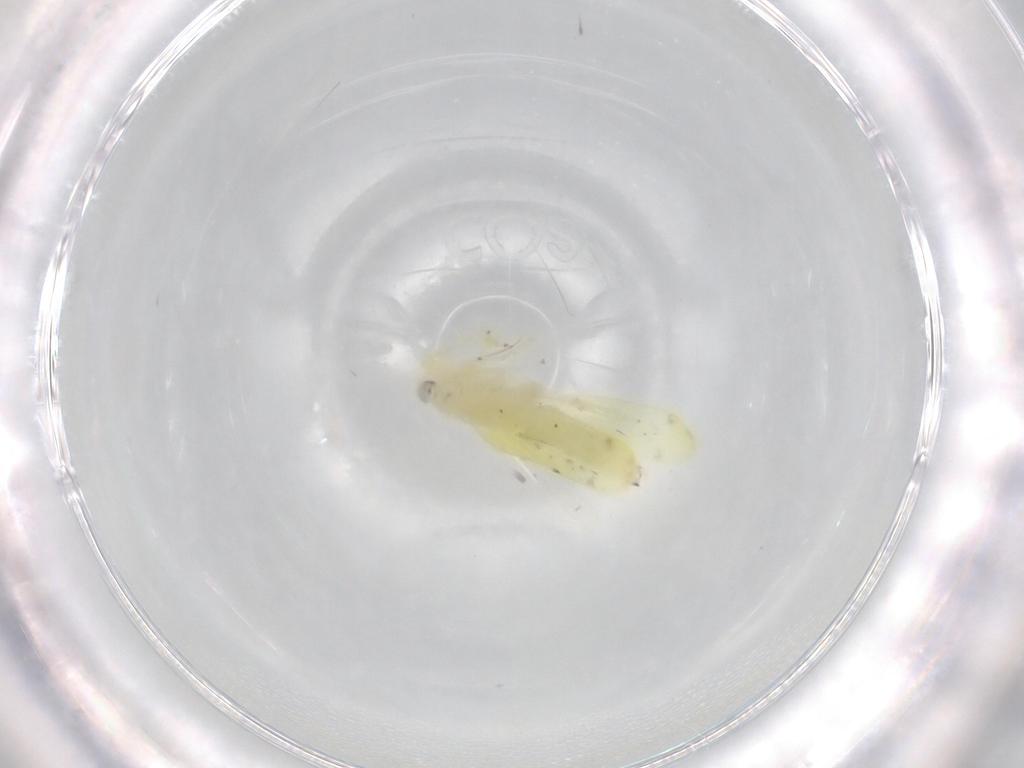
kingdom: Animalia
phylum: Arthropoda
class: Insecta
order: Hemiptera
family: Cicadellidae
